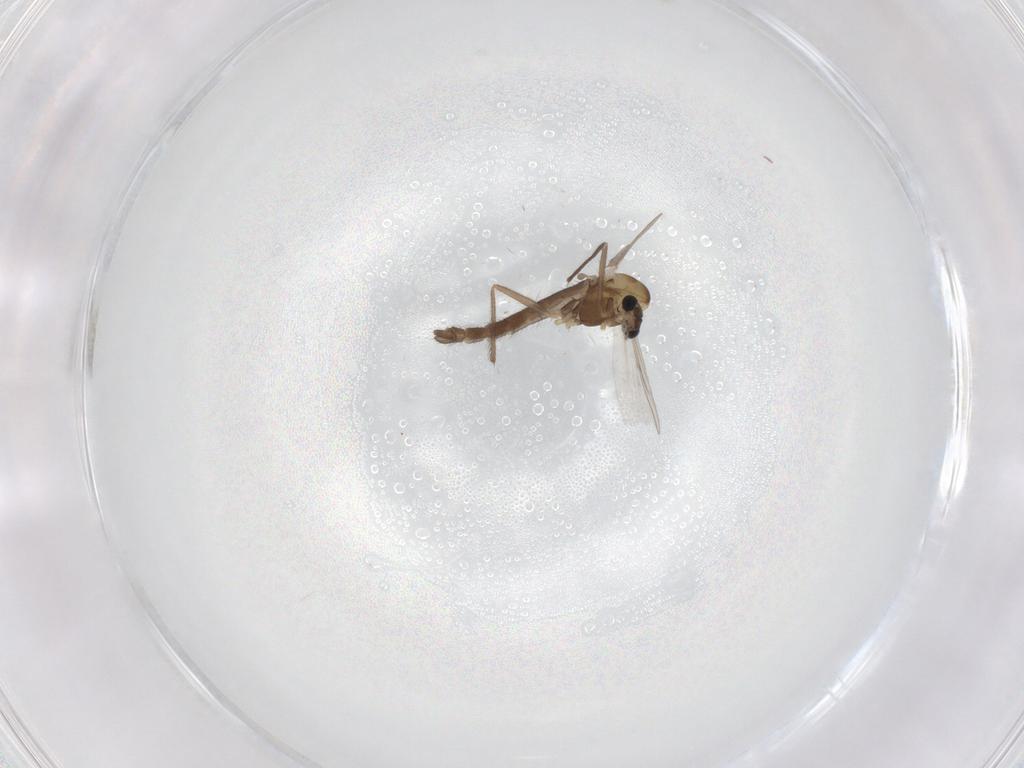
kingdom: Animalia
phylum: Arthropoda
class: Insecta
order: Diptera
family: Chironomidae
